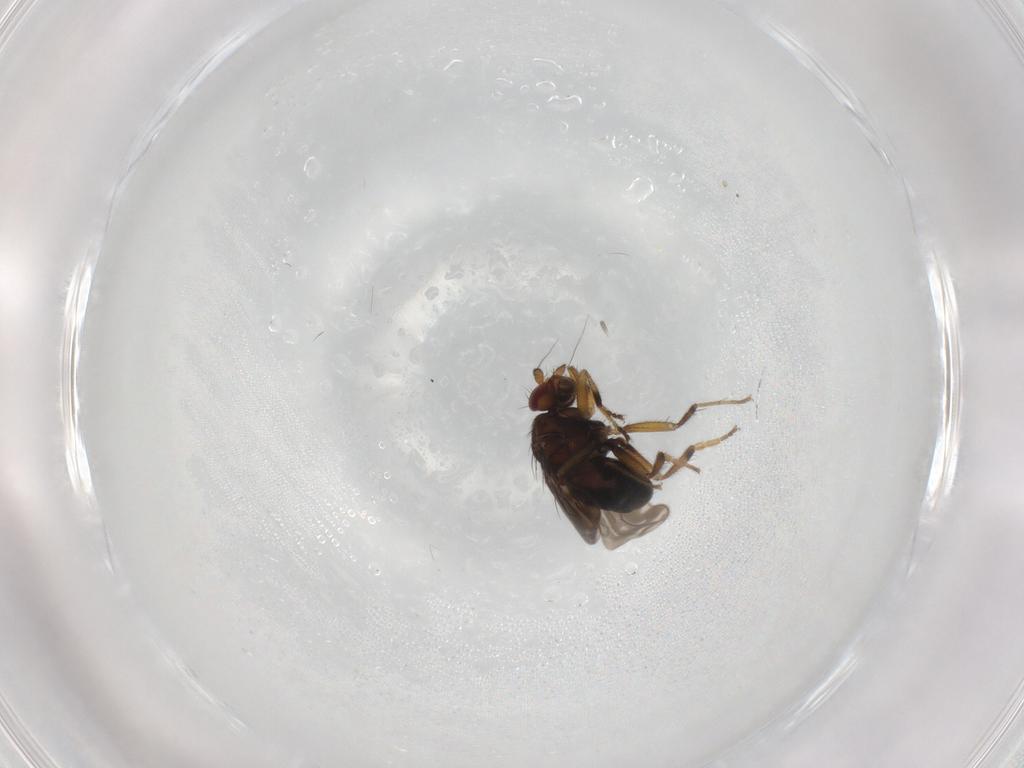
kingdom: Animalia
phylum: Arthropoda
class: Insecta
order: Diptera
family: Sphaeroceridae
